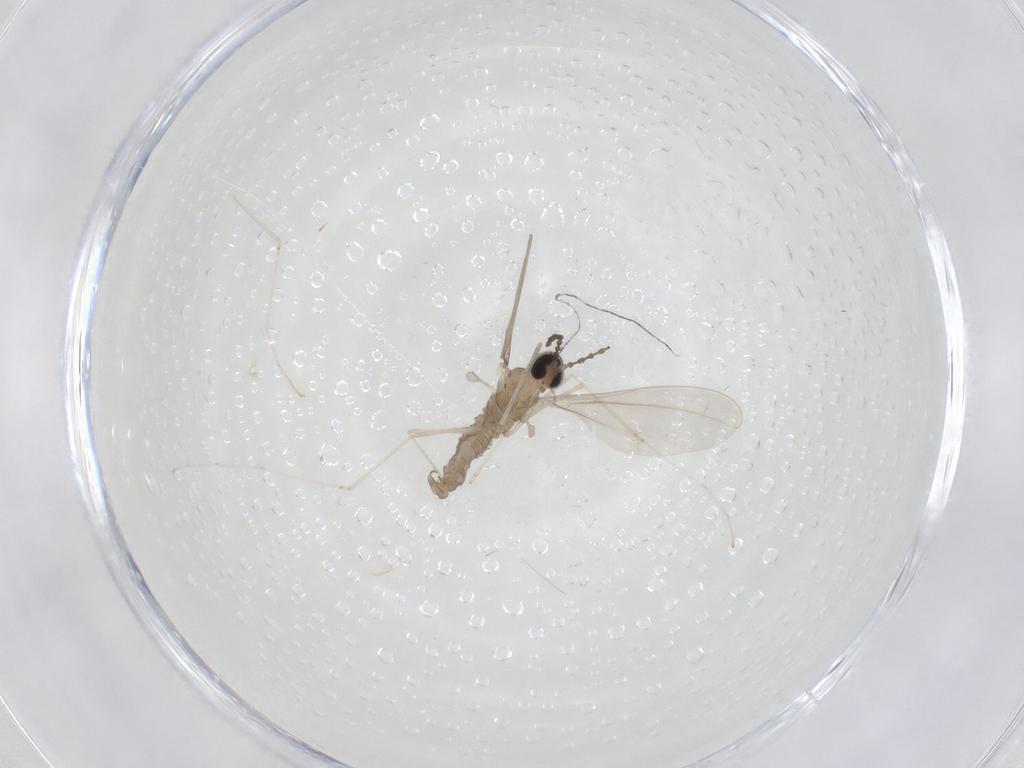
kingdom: Animalia
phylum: Arthropoda
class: Insecta
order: Diptera
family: Cecidomyiidae
